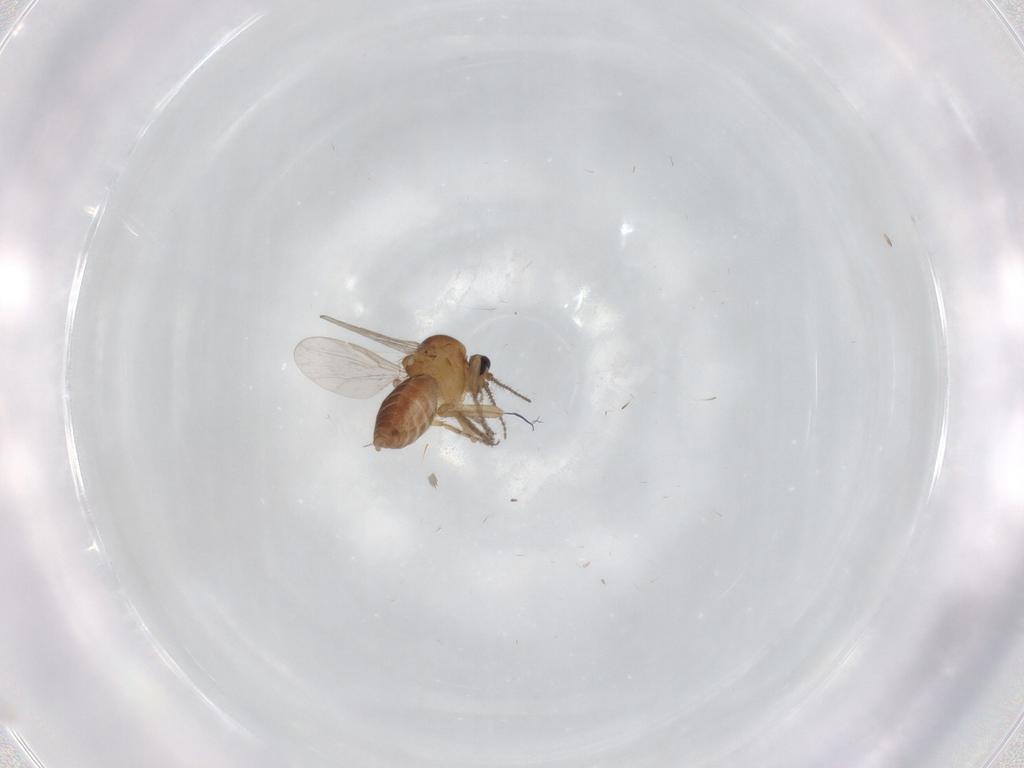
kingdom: Animalia
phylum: Arthropoda
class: Insecta
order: Diptera
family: Ceratopogonidae
